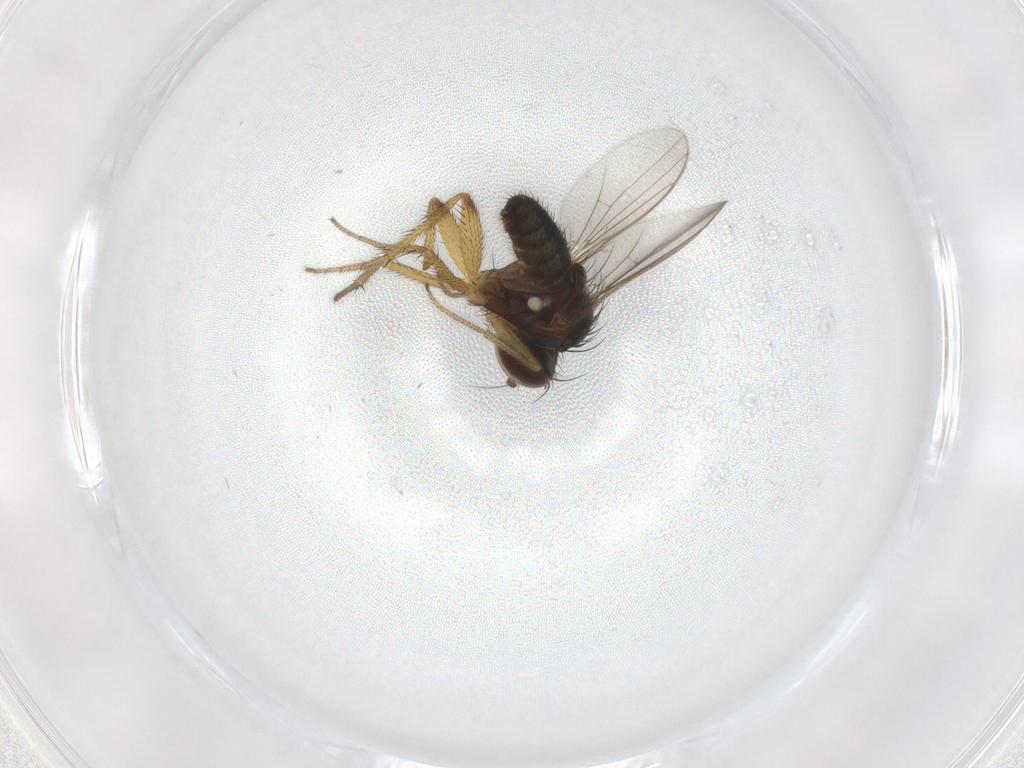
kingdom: Animalia
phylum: Arthropoda
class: Insecta
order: Diptera
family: Dolichopodidae
